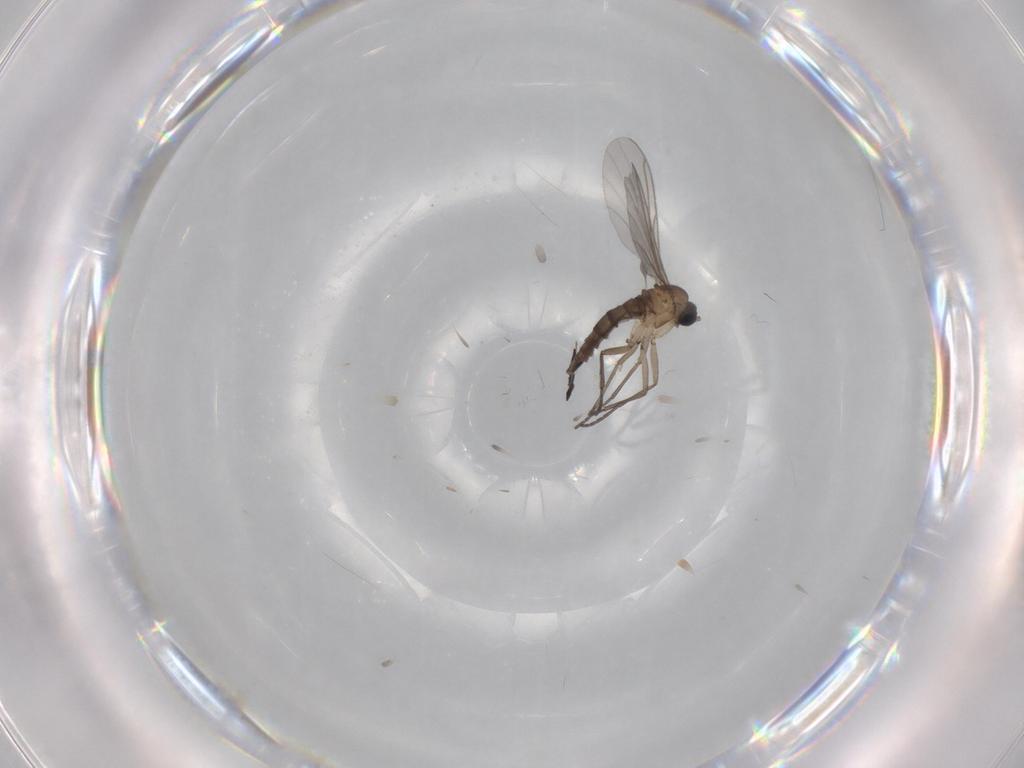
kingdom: Animalia
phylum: Arthropoda
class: Insecta
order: Diptera
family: Sciaridae
